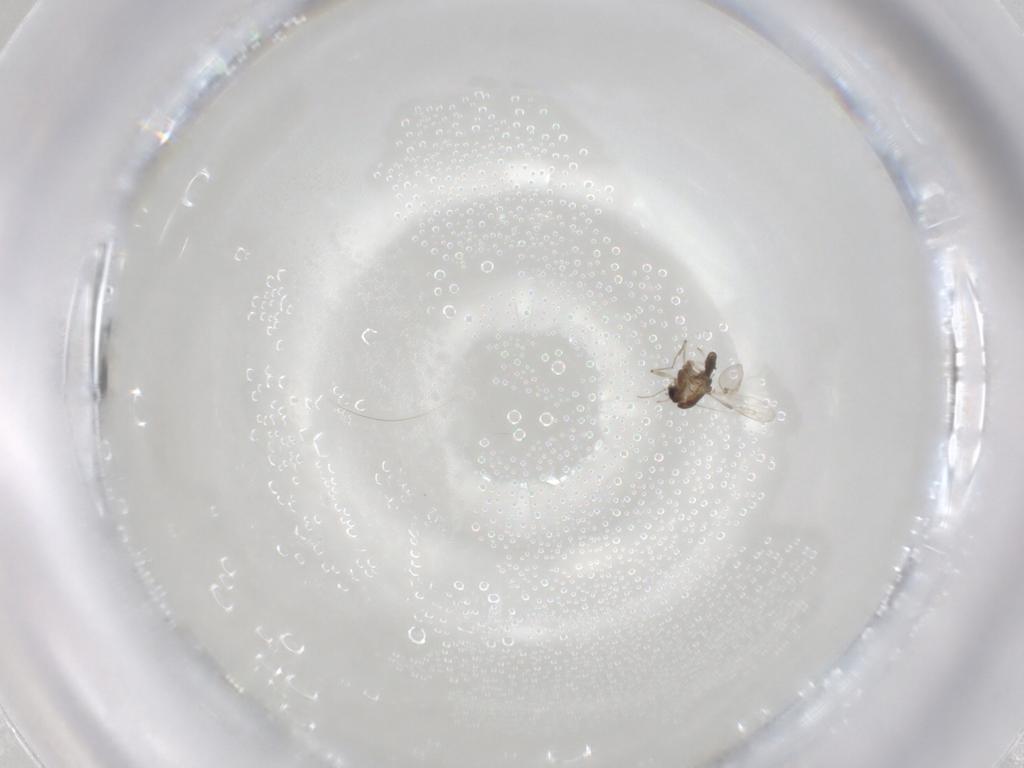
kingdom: Animalia
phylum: Arthropoda
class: Insecta
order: Diptera
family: Chironomidae
